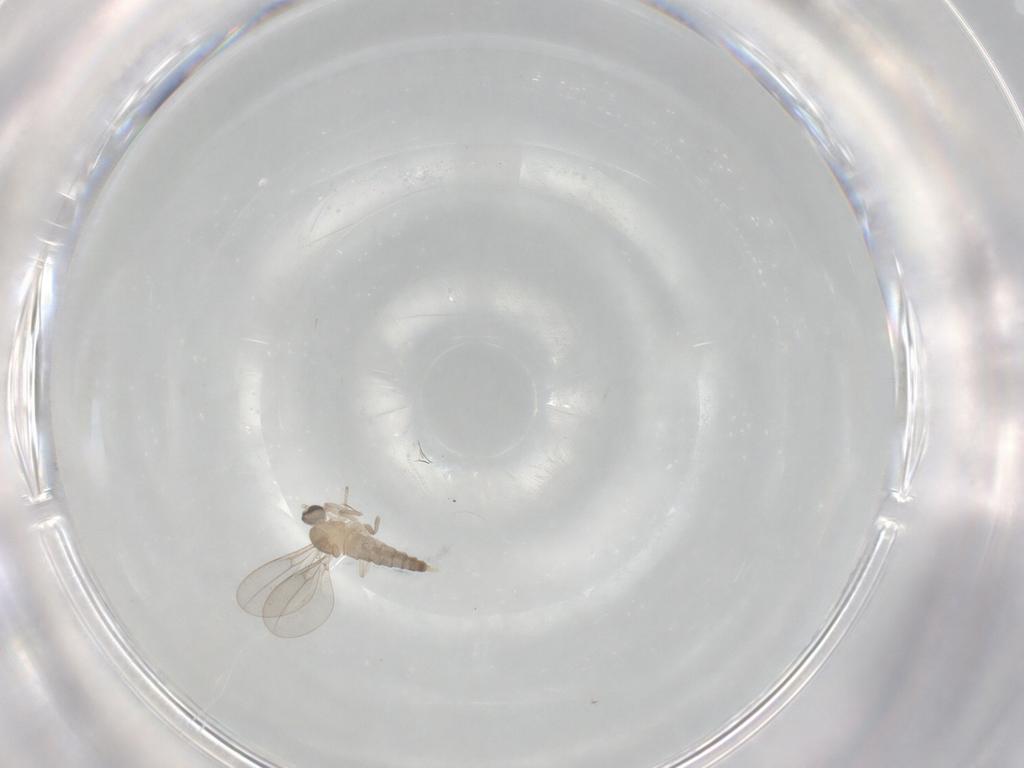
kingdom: Animalia
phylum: Arthropoda
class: Insecta
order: Diptera
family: Cecidomyiidae
